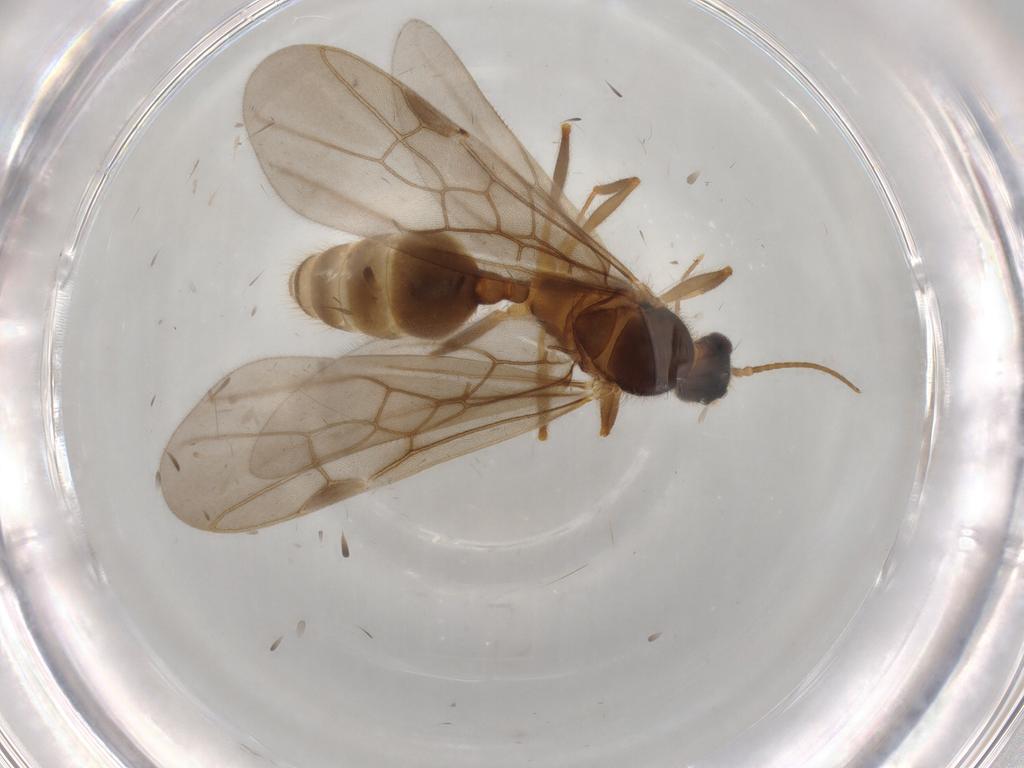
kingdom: Animalia
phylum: Arthropoda
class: Insecta
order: Hymenoptera
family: Formicidae
